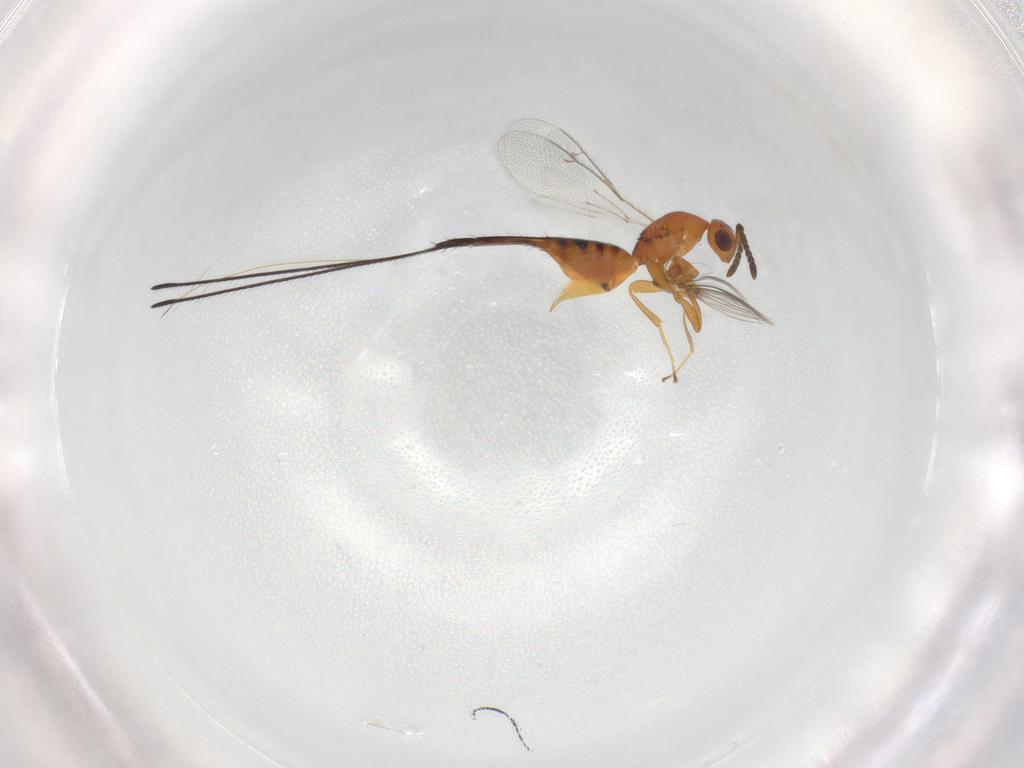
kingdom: Animalia
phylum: Arthropoda
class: Insecta
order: Hymenoptera
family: Pteromalidae
